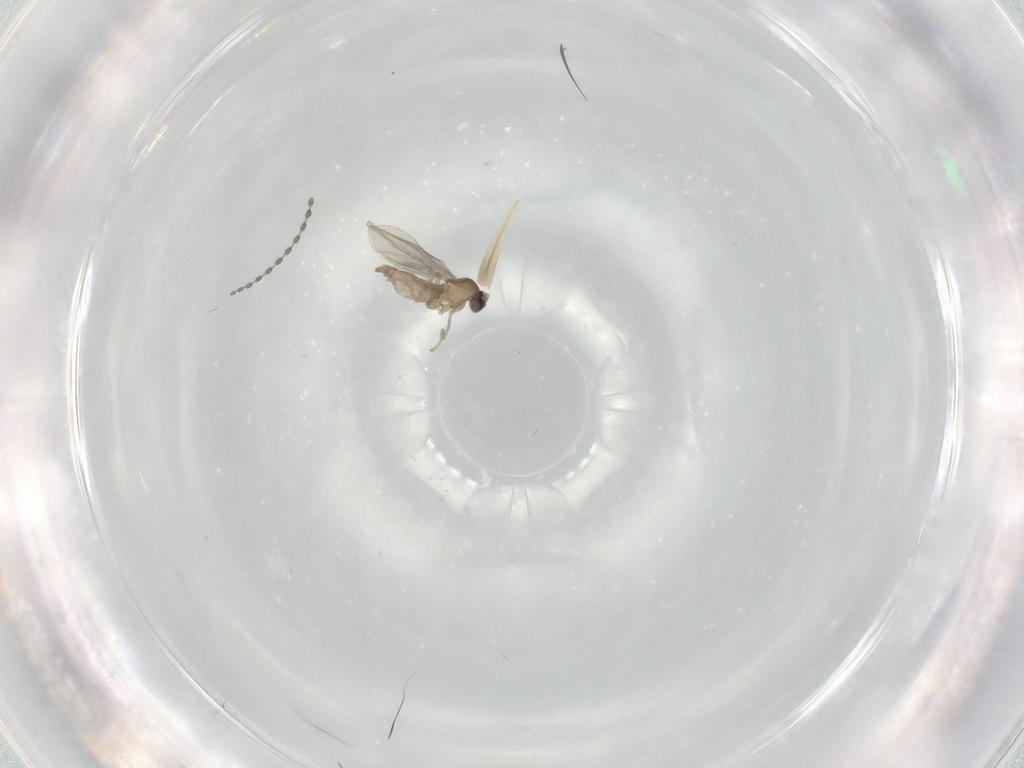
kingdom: Animalia
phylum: Arthropoda
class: Insecta
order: Diptera
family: Cecidomyiidae
